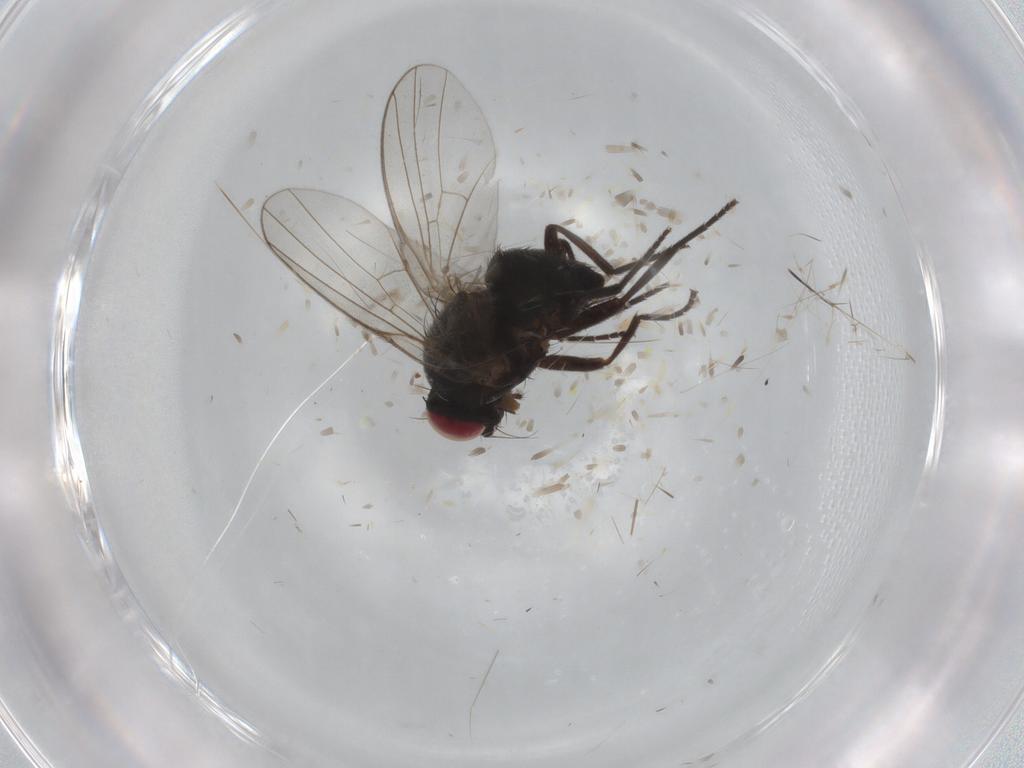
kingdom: Animalia
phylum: Arthropoda
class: Insecta
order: Diptera
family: Agromyzidae
